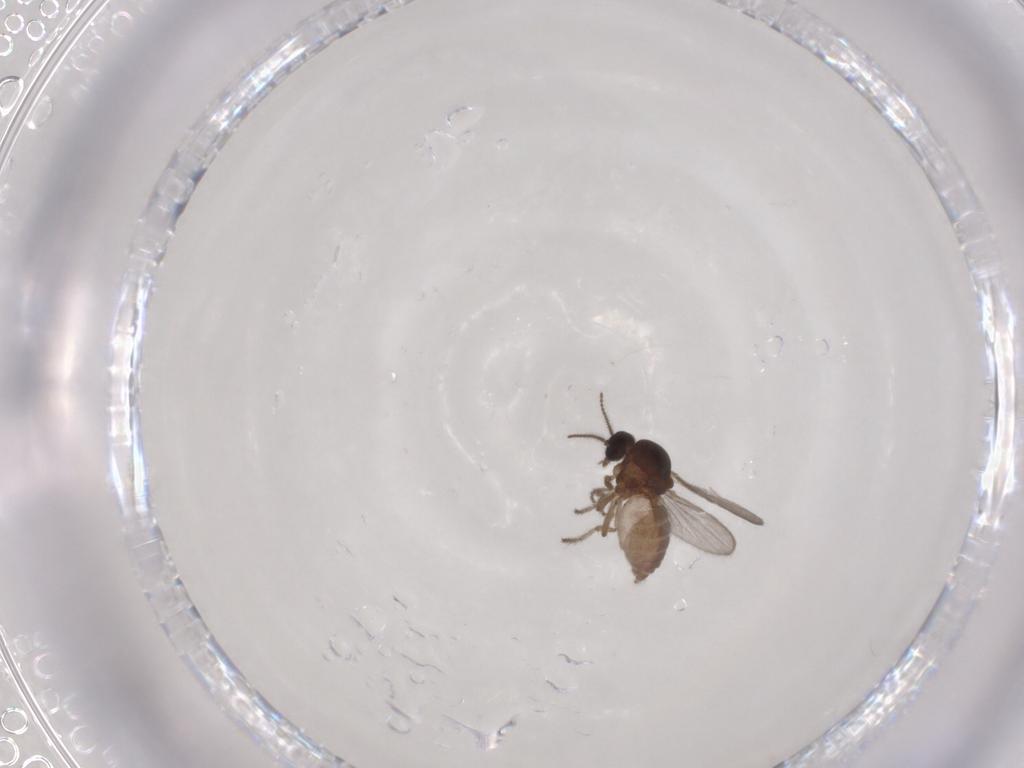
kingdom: Animalia
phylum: Arthropoda
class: Insecta
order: Diptera
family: Ceratopogonidae
